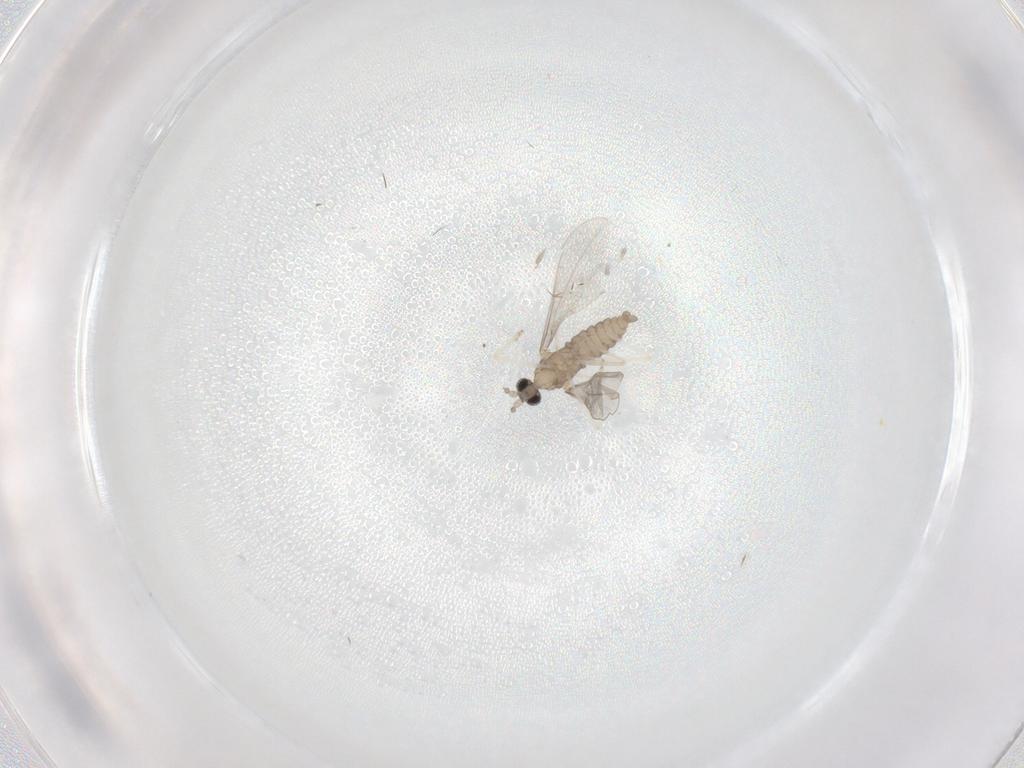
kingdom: Animalia
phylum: Arthropoda
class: Insecta
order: Diptera
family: Cecidomyiidae
